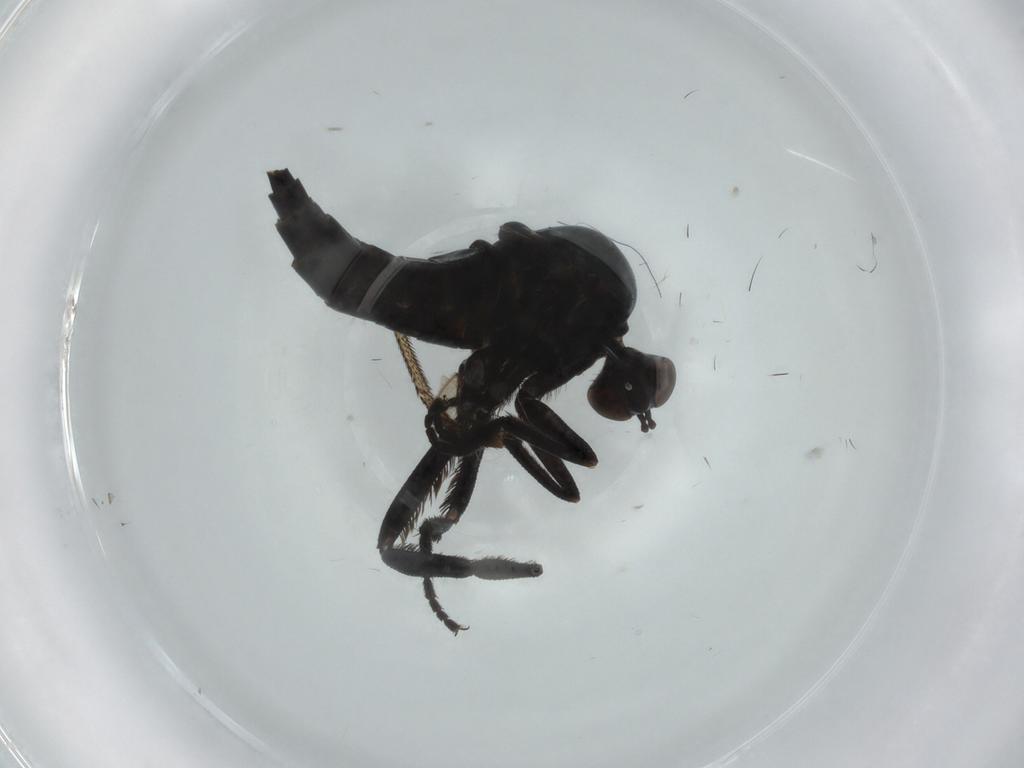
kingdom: Animalia
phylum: Arthropoda
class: Insecta
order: Diptera
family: Empididae
